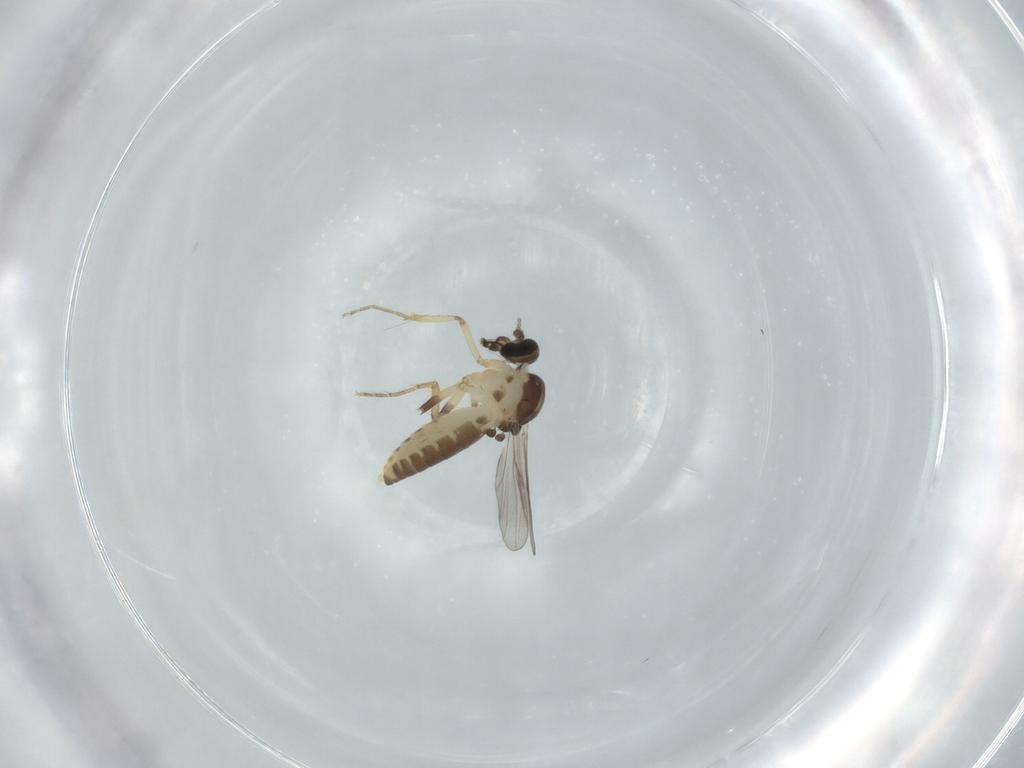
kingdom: Animalia
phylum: Arthropoda
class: Insecta
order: Diptera
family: Ceratopogonidae
